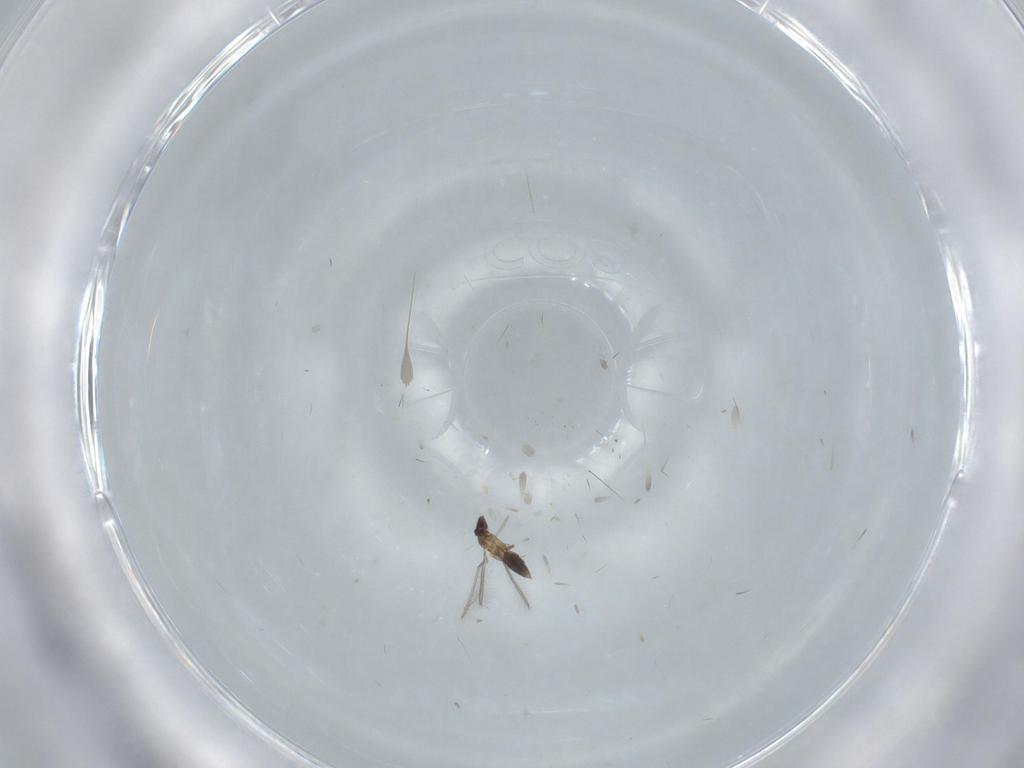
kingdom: Animalia
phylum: Arthropoda
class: Insecta
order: Hymenoptera
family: Mymaridae
